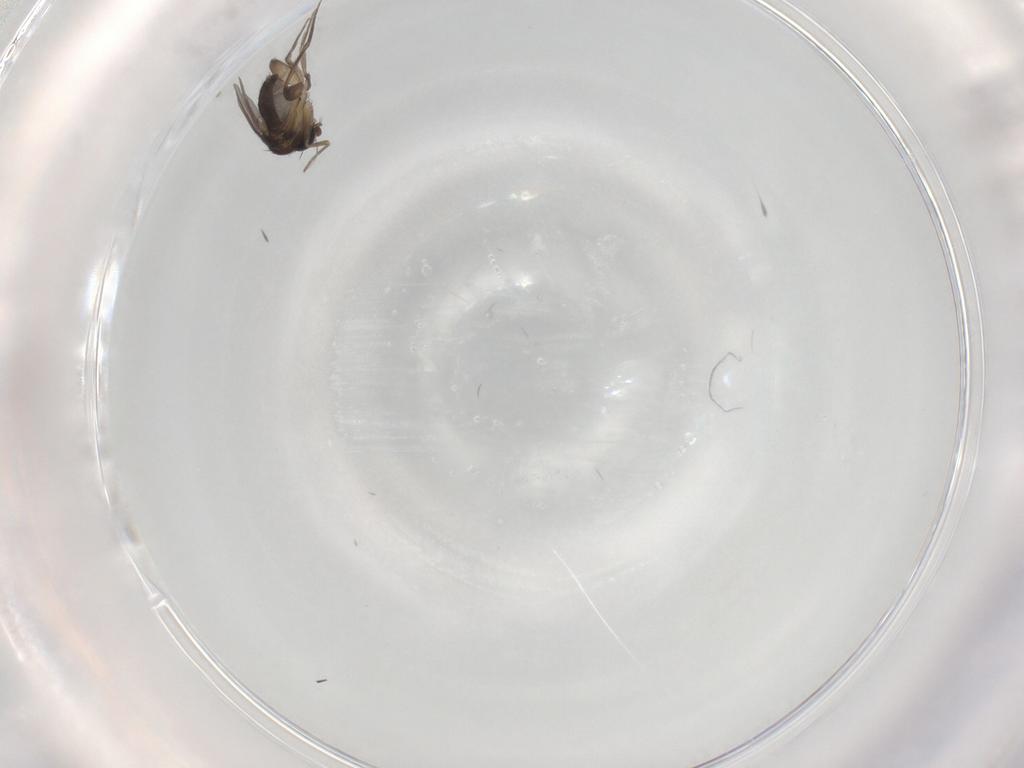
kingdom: Animalia
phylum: Arthropoda
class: Insecta
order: Diptera
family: Phoridae
